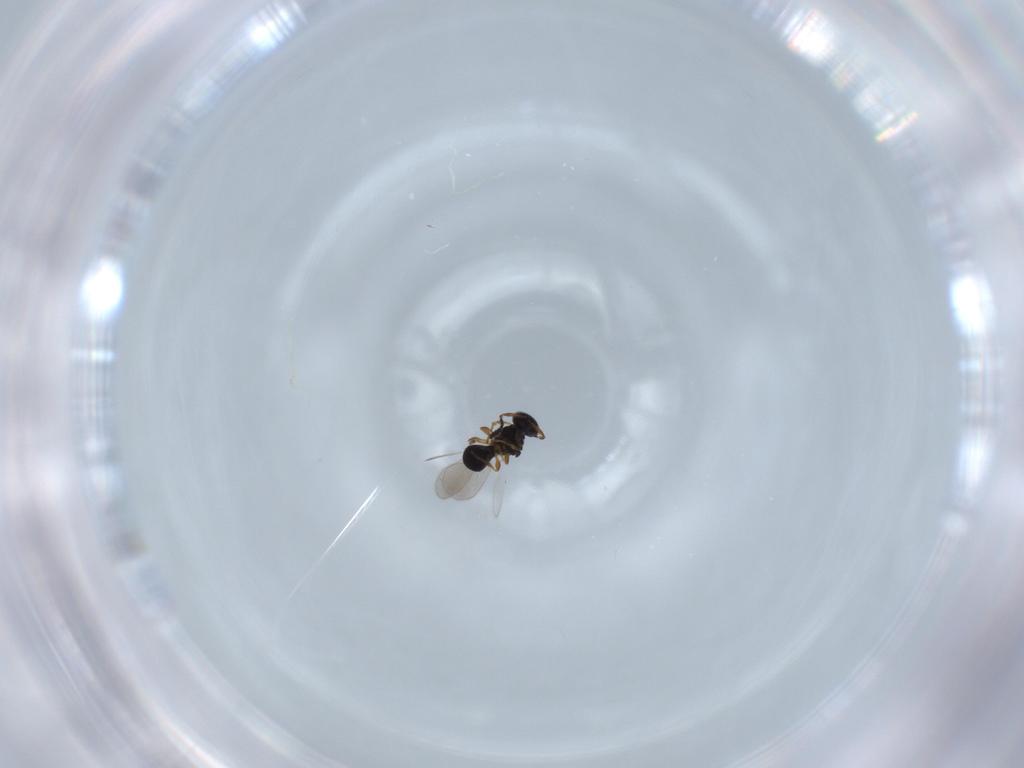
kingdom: Animalia
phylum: Arthropoda
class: Insecta
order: Hymenoptera
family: Platygastridae
